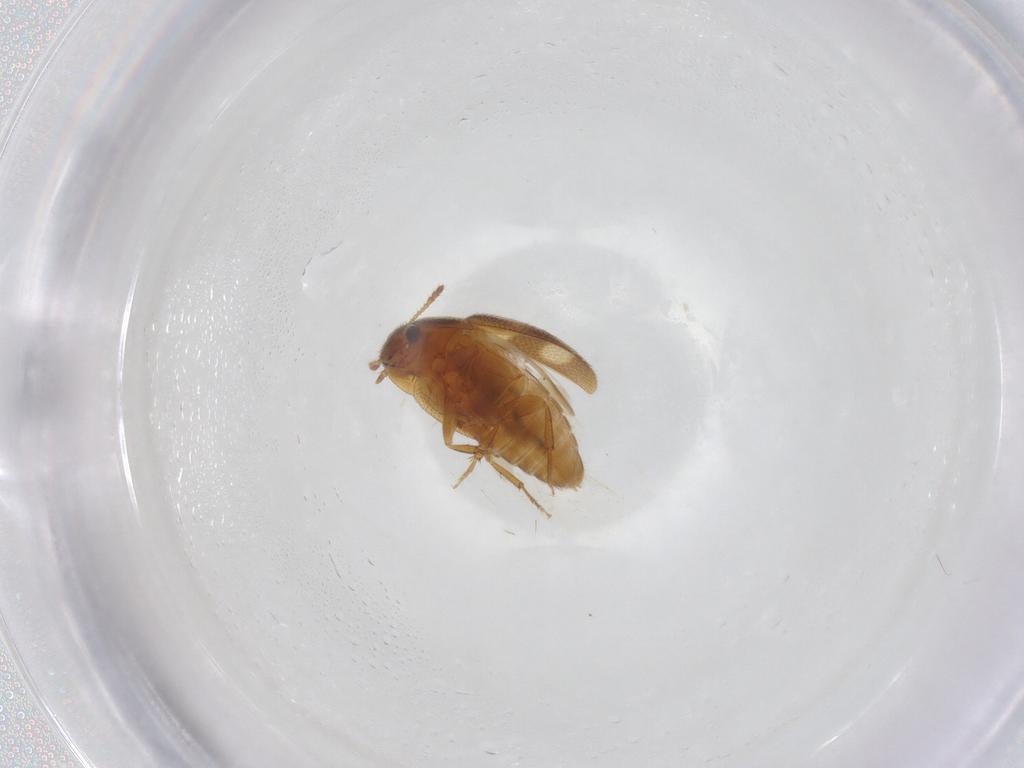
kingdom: Animalia
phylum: Arthropoda
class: Insecta
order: Coleoptera
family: Mycetophagidae
